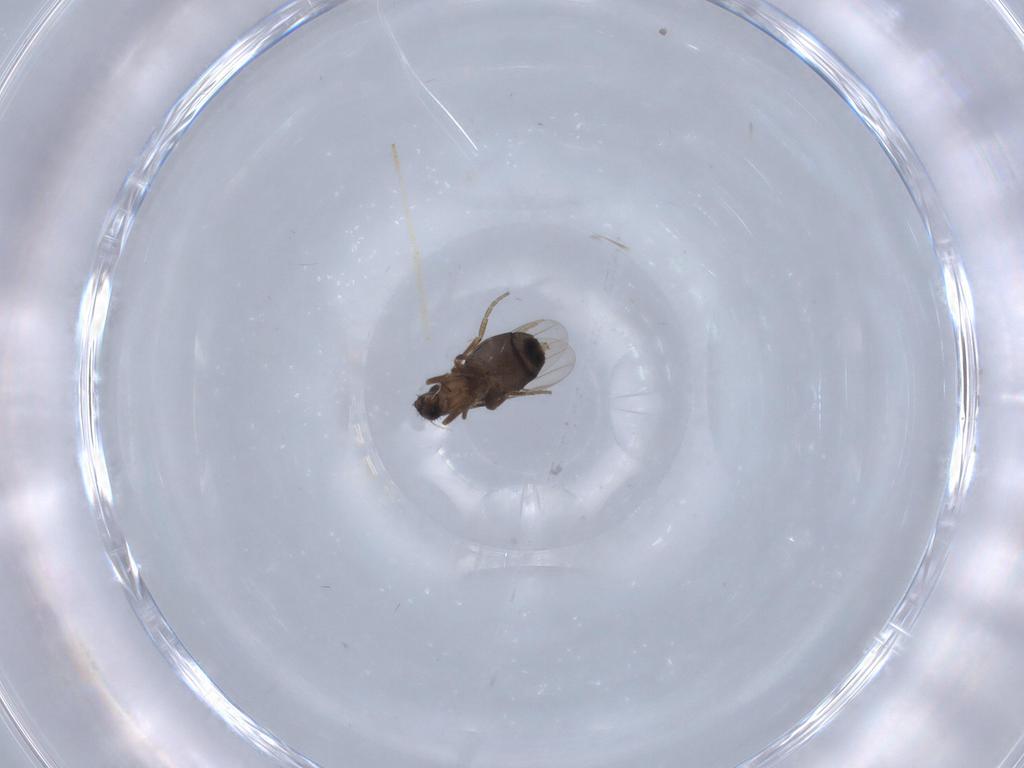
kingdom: Animalia
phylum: Arthropoda
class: Insecta
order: Diptera
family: Chironomidae
